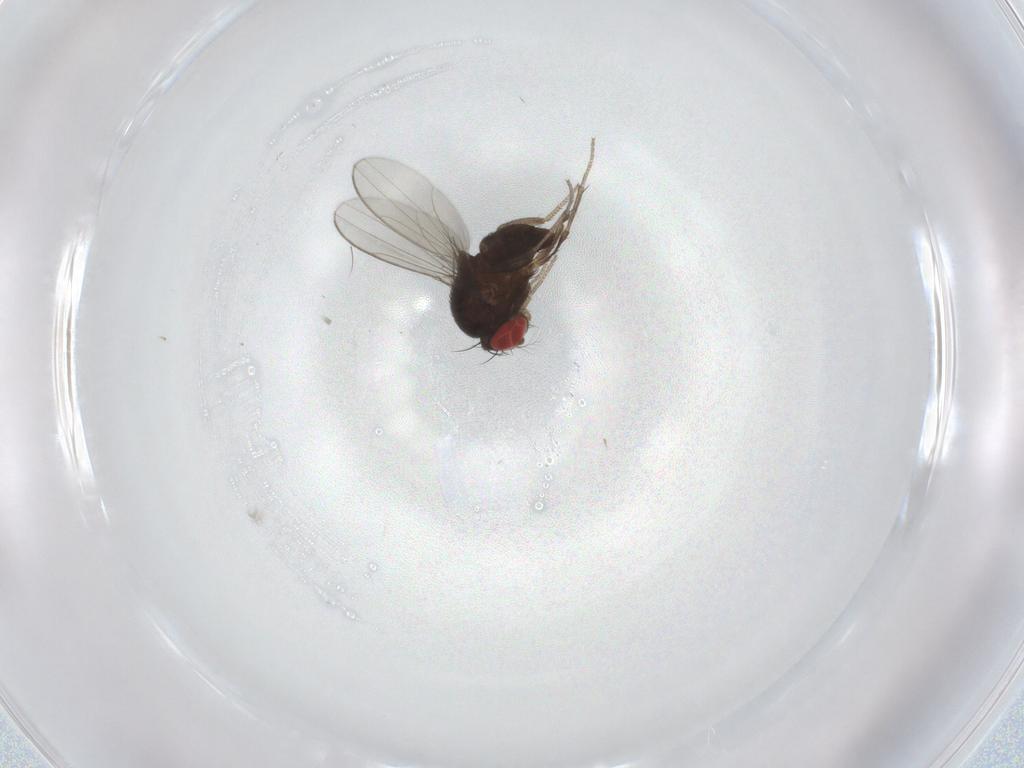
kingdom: Animalia
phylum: Arthropoda
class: Insecta
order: Diptera
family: Drosophilidae
